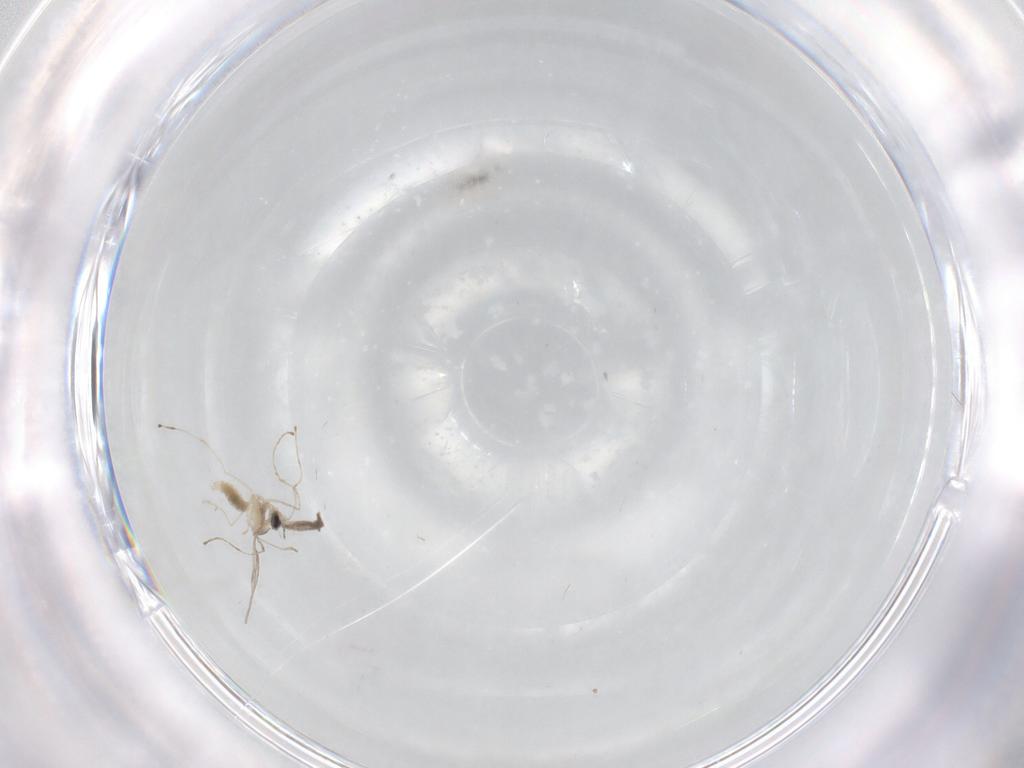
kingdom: Animalia
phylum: Arthropoda
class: Insecta
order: Diptera
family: Cecidomyiidae
